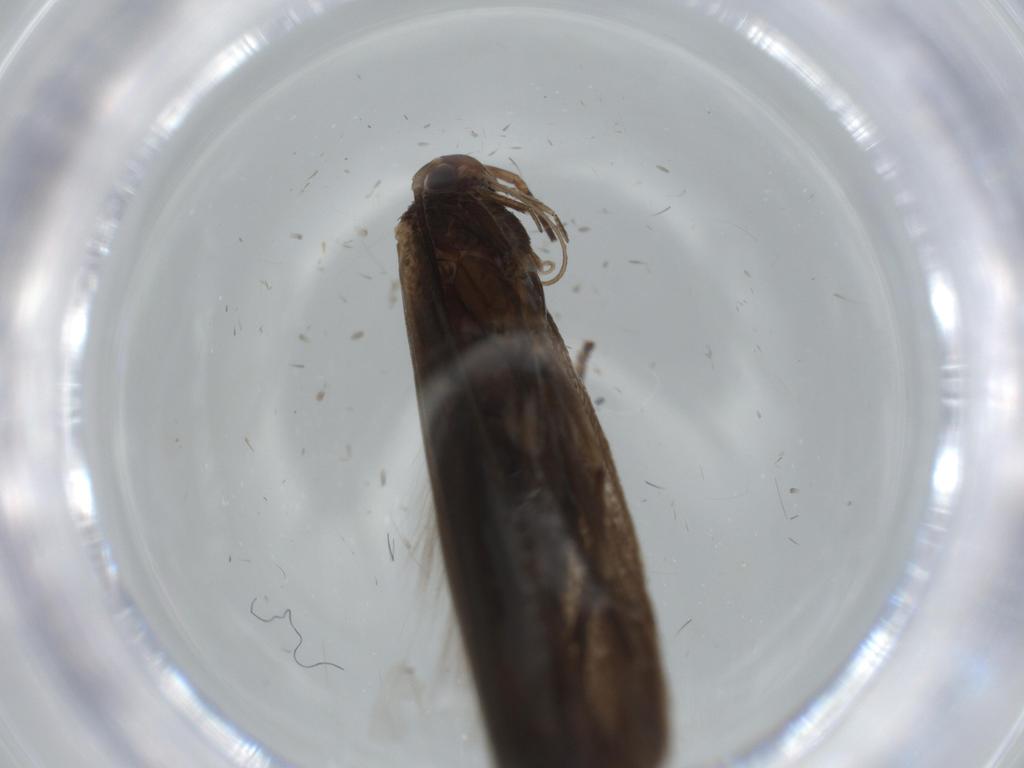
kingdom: Animalia
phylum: Arthropoda
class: Insecta
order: Lepidoptera
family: Coleophoridae
